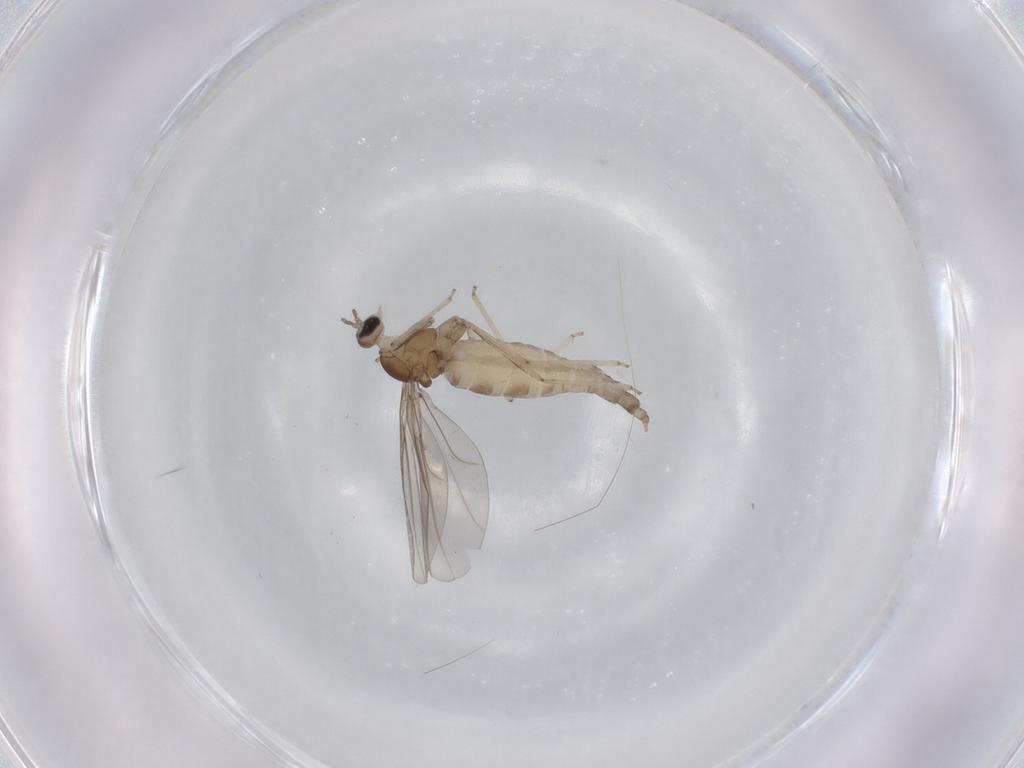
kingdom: Animalia
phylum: Arthropoda
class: Insecta
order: Diptera
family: Cecidomyiidae
